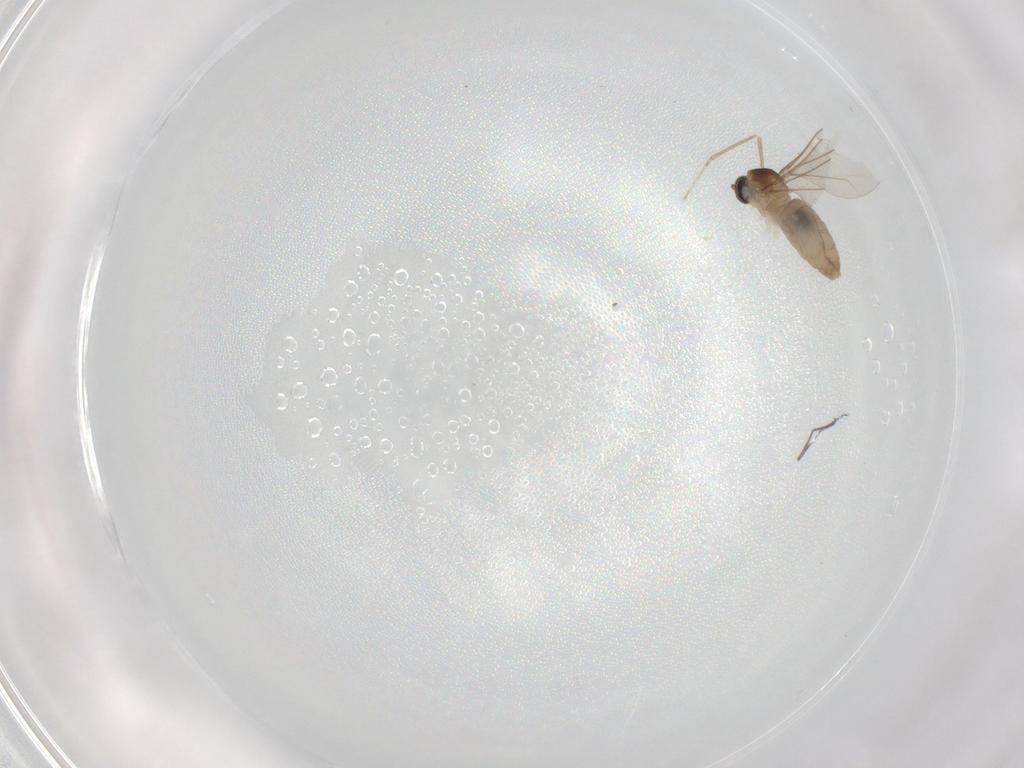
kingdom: Animalia
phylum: Arthropoda
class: Insecta
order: Diptera
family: Cecidomyiidae
